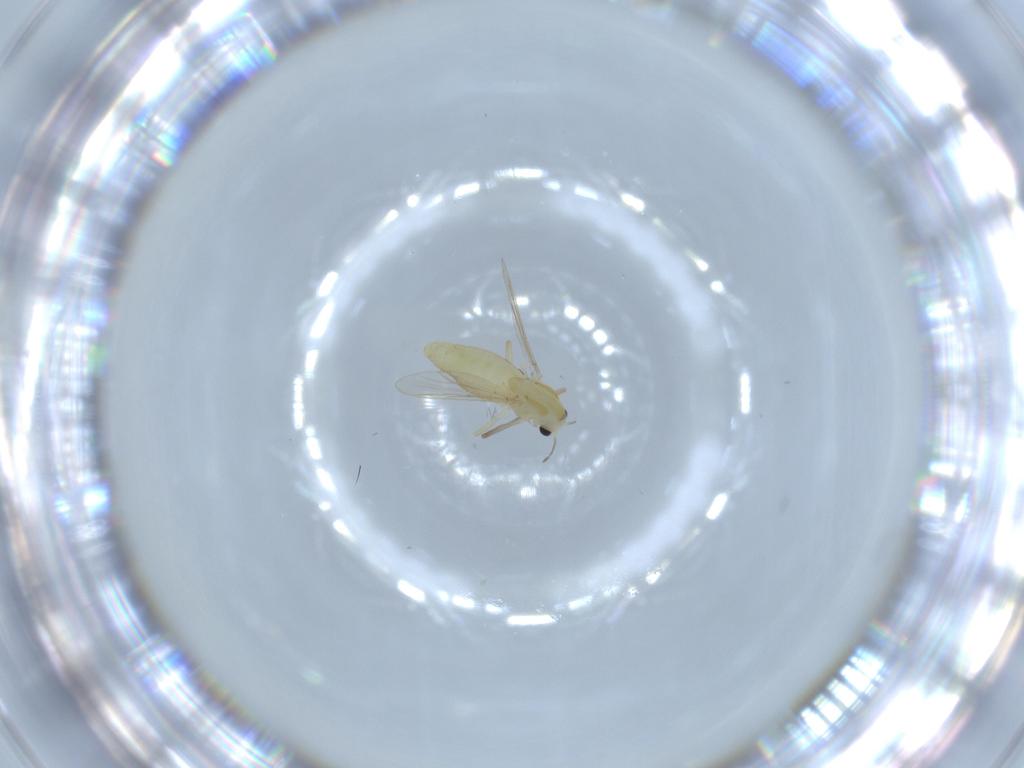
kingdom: Animalia
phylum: Arthropoda
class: Insecta
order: Diptera
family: Chironomidae
